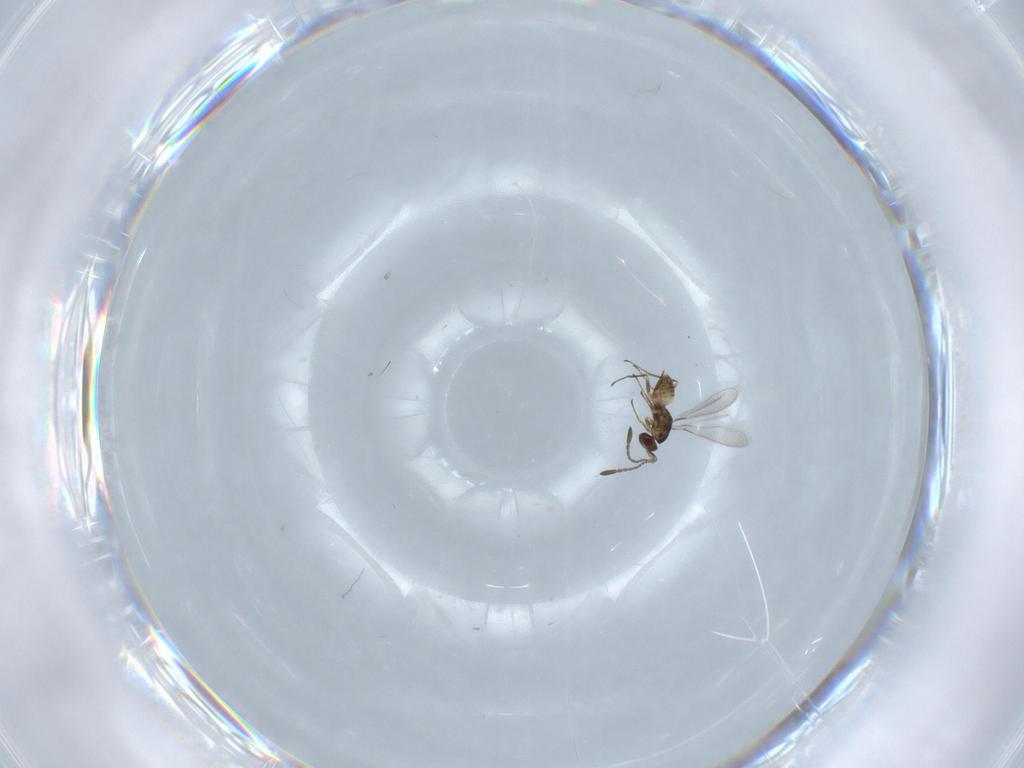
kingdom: Animalia
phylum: Arthropoda
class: Insecta
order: Hymenoptera
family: Mymaridae
